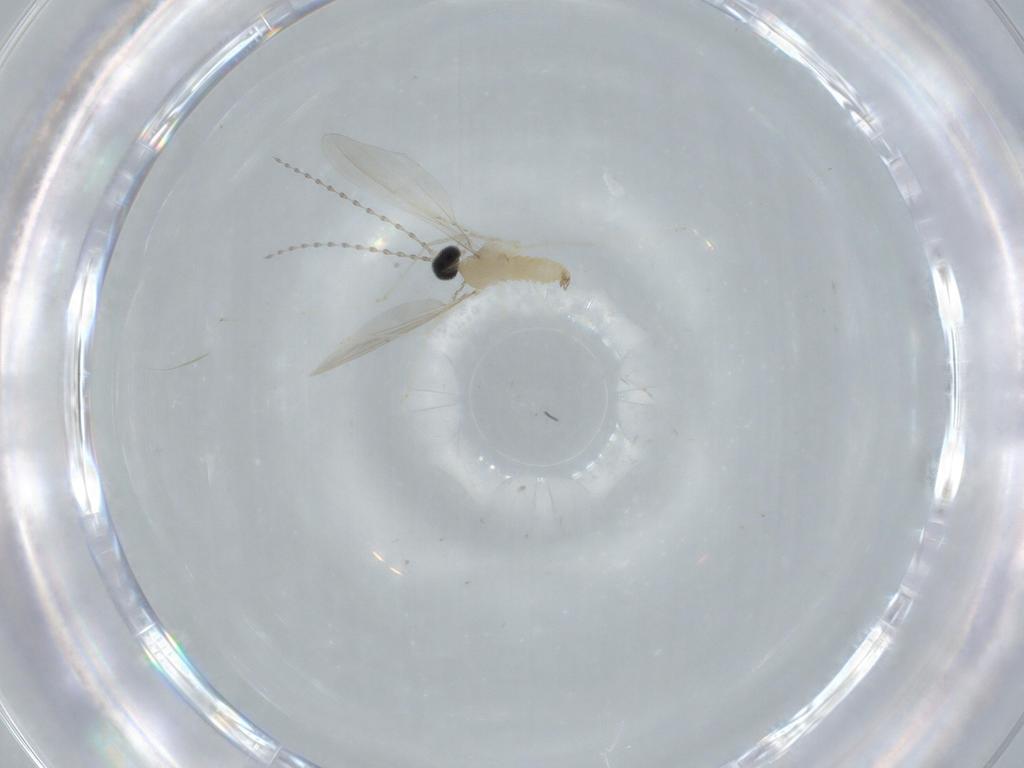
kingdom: Animalia
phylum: Arthropoda
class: Insecta
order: Diptera
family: Cecidomyiidae
